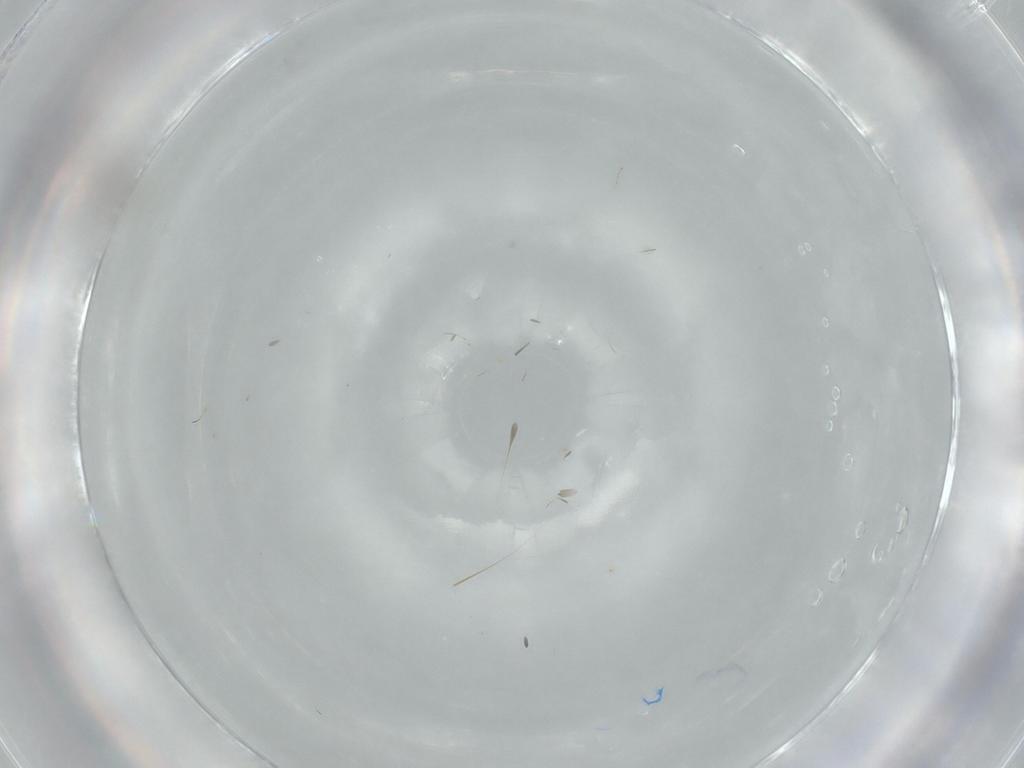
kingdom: Animalia
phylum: Arthropoda
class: Insecta
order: Diptera
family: Cecidomyiidae
